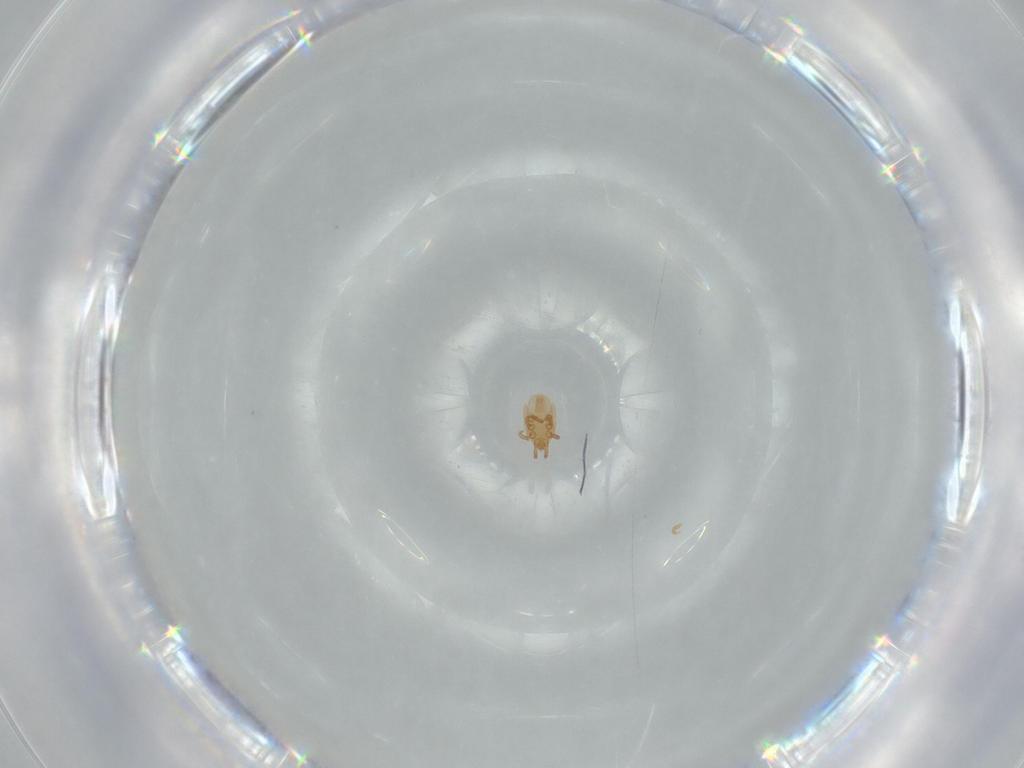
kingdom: Animalia
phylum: Arthropoda
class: Arachnida
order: Mesostigmata
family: Dinychidae
